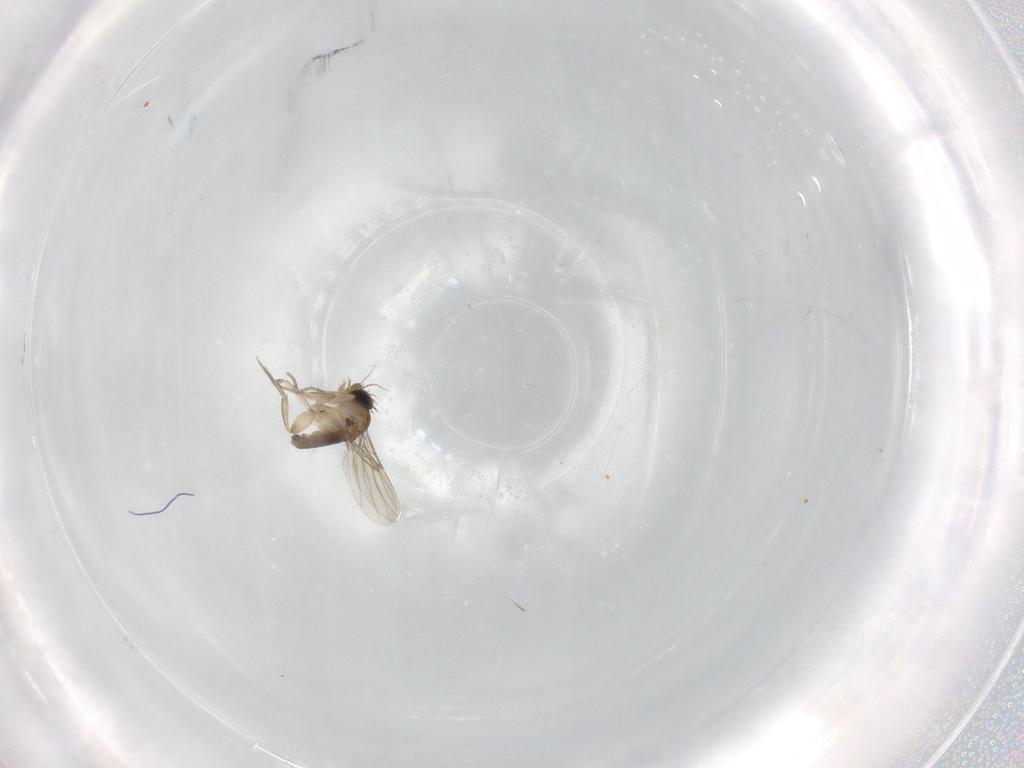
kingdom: Animalia
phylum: Arthropoda
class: Insecta
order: Diptera
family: Phoridae
